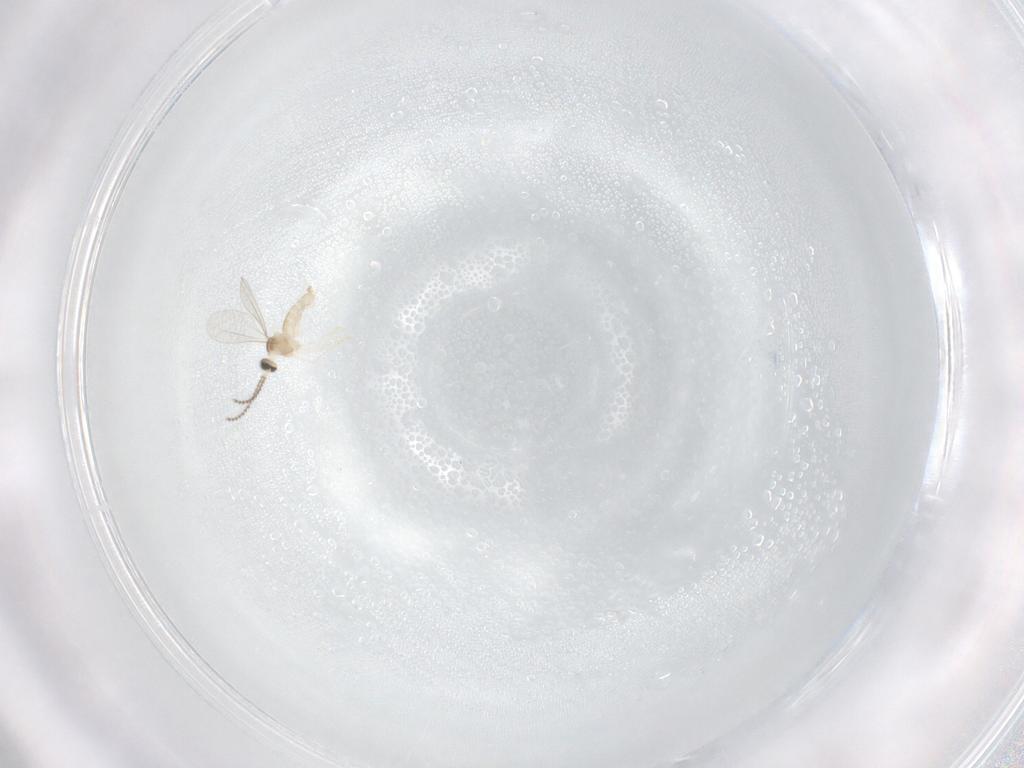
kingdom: Animalia
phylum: Arthropoda
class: Insecta
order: Diptera
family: Cecidomyiidae
